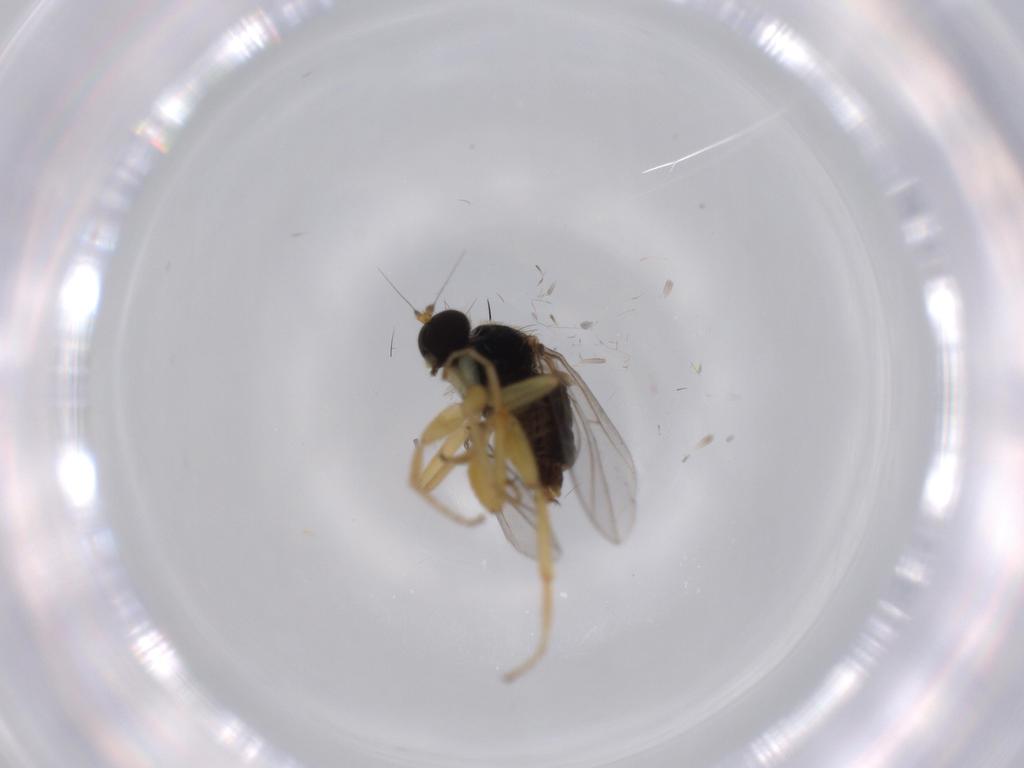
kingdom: Animalia
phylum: Arthropoda
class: Insecta
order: Diptera
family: Hybotidae
